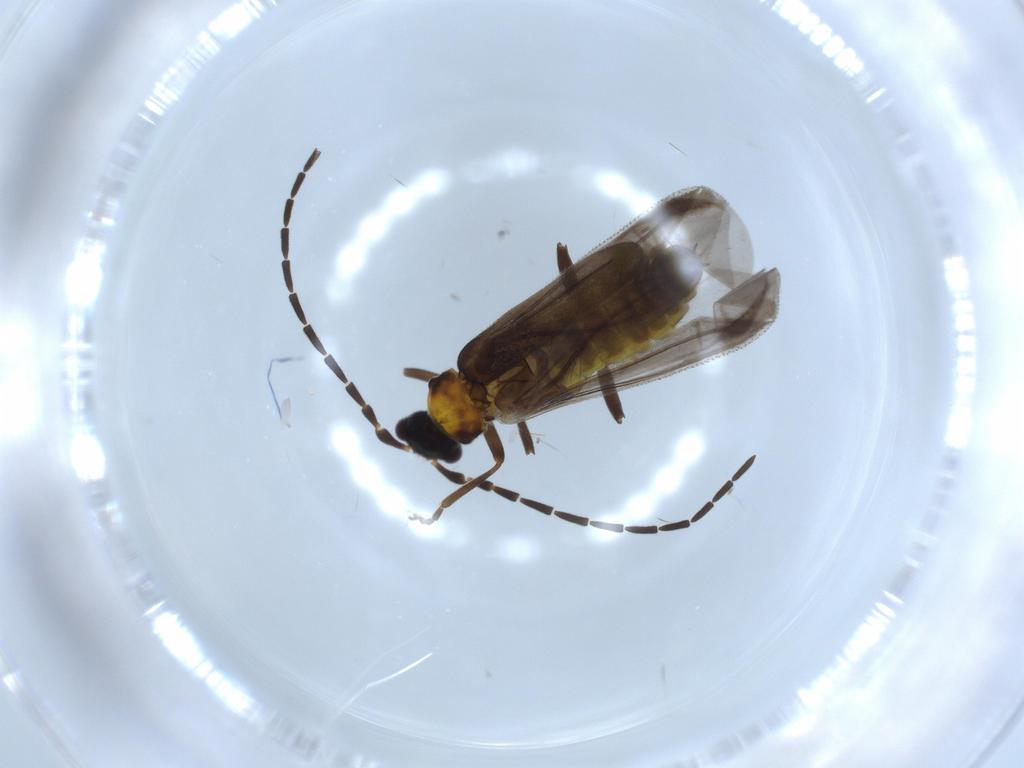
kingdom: Animalia
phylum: Arthropoda
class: Insecta
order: Coleoptera
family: Cantharidae
